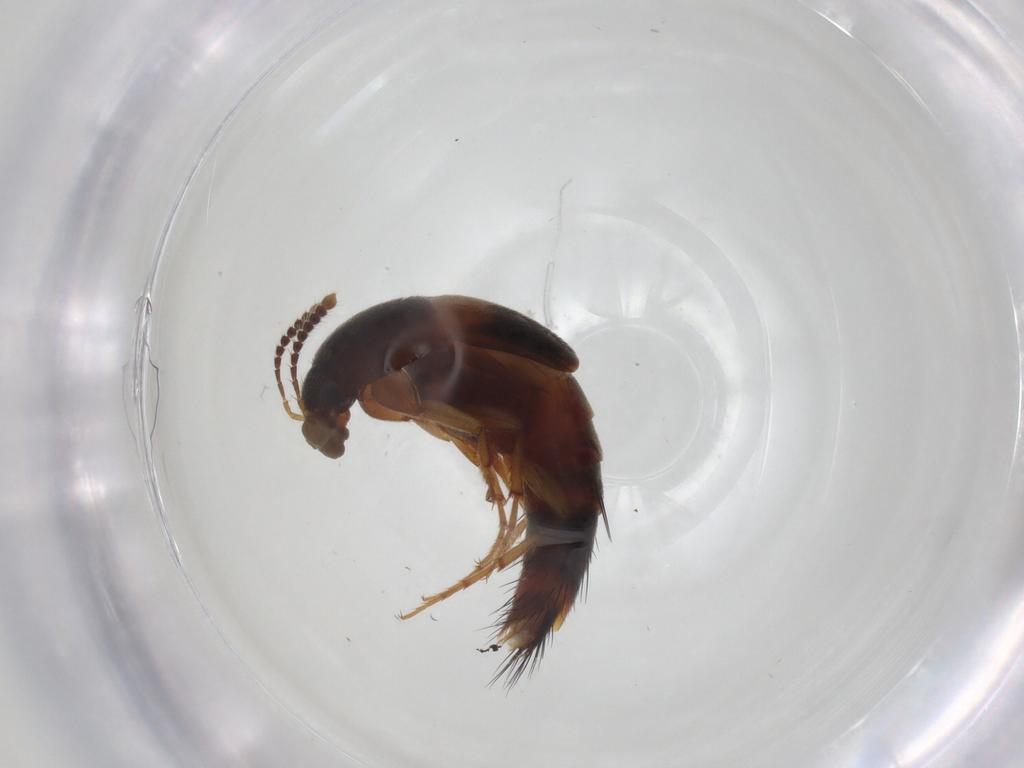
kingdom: Animalia
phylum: Arthropoda
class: Insecta
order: Coleoptera
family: Staphylinidae
